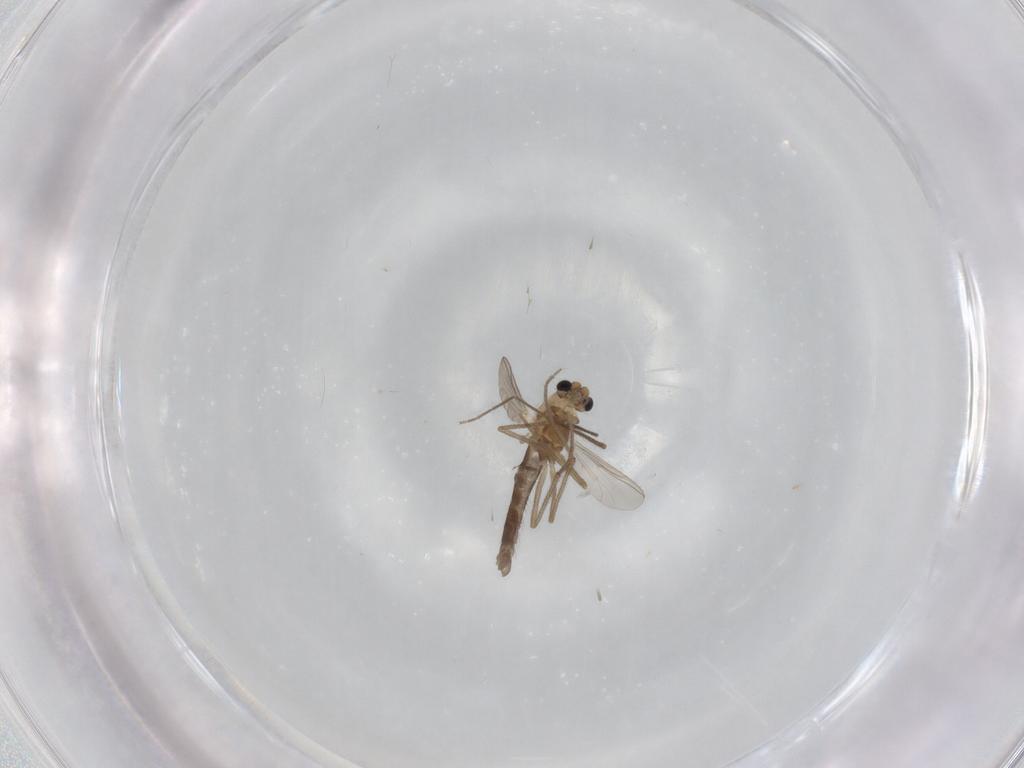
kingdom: Animalia
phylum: Arthropoda
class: Insecta
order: Diptera
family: Chironomidae
